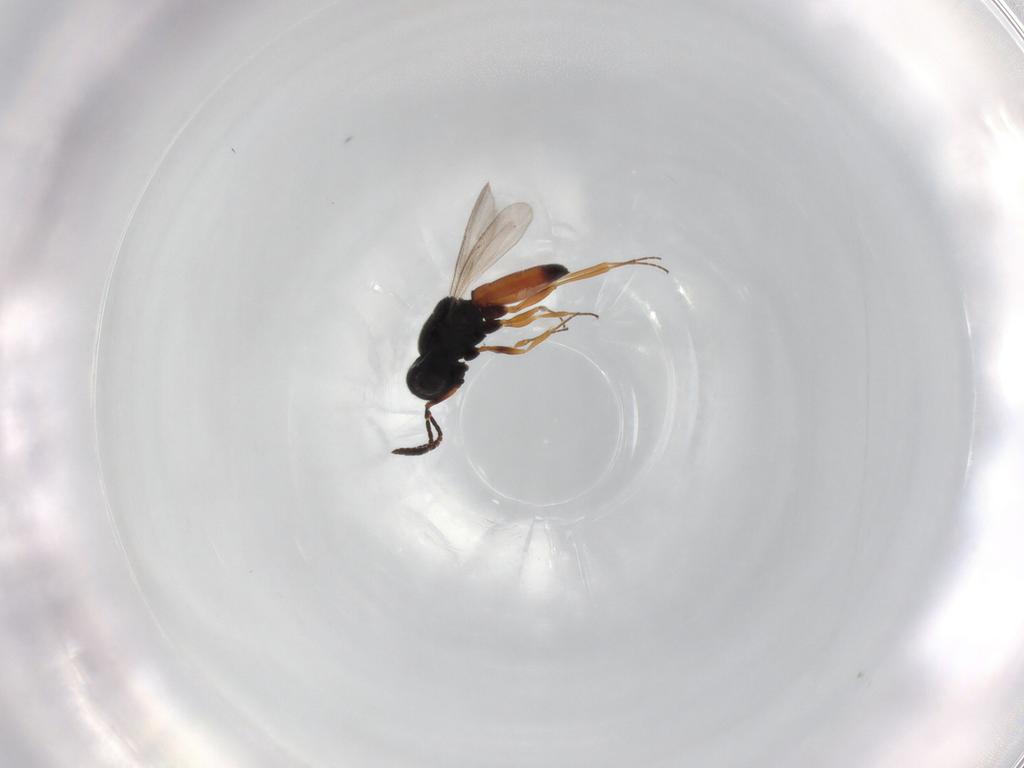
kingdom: Animalia
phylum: Arthropoda
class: Insecta
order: Hymenoptera
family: Scelionidae
